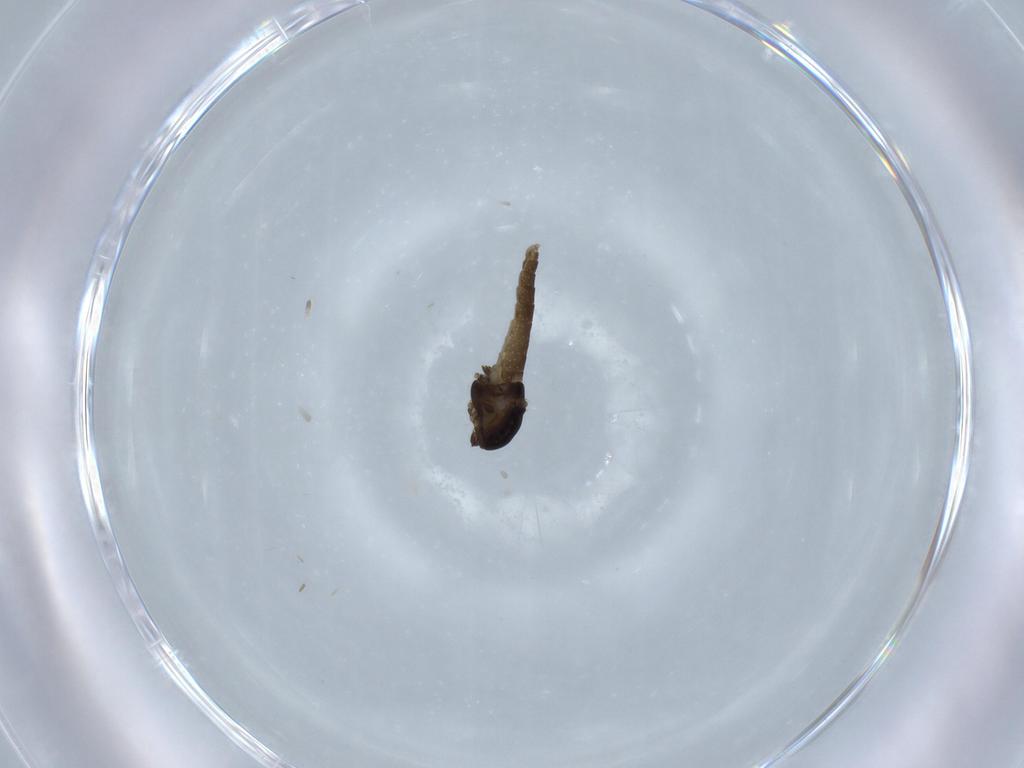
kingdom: Animalia
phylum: Arthropoda
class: Insecta
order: Diptera
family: Chironomidae
